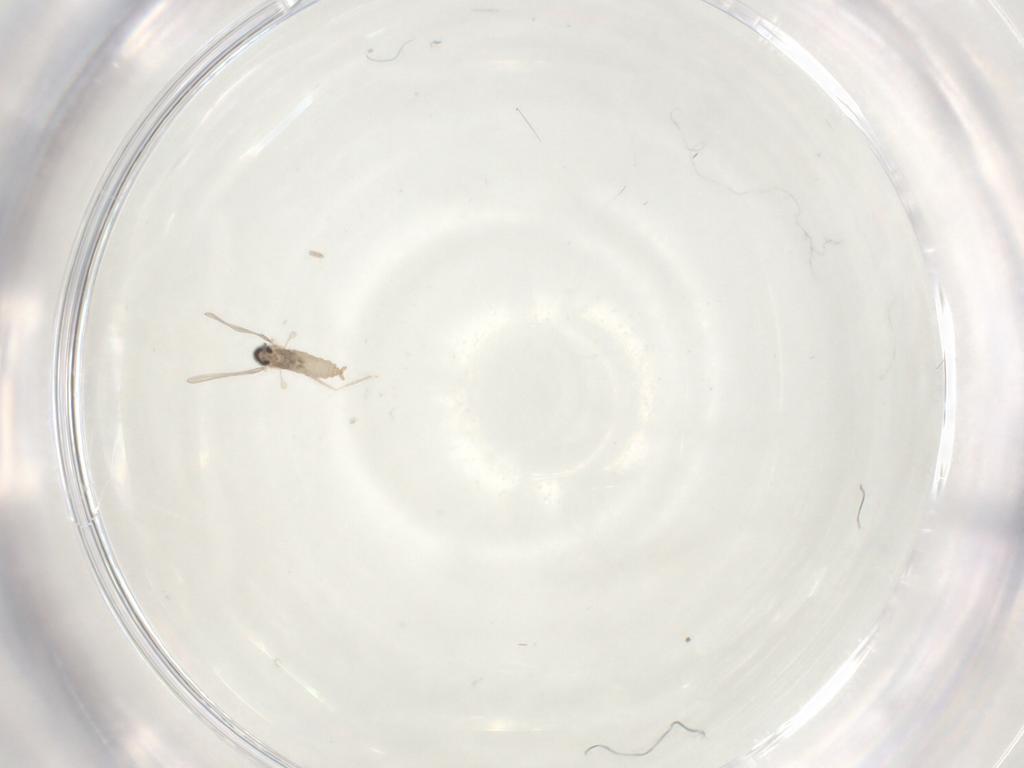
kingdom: Animalia
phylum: Arthropoda
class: Insecta
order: Diptera
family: Cecidomyiidae
